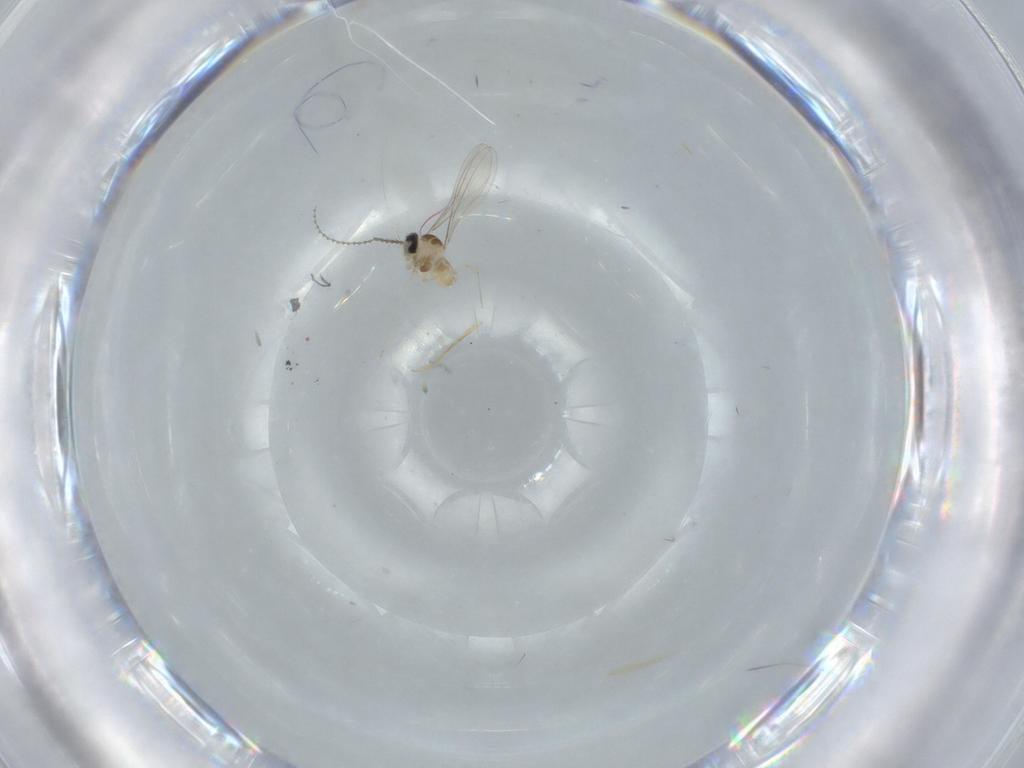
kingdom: Animalia
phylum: Arthropoda
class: Insecta
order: Diptera
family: Cecidomyiidae
